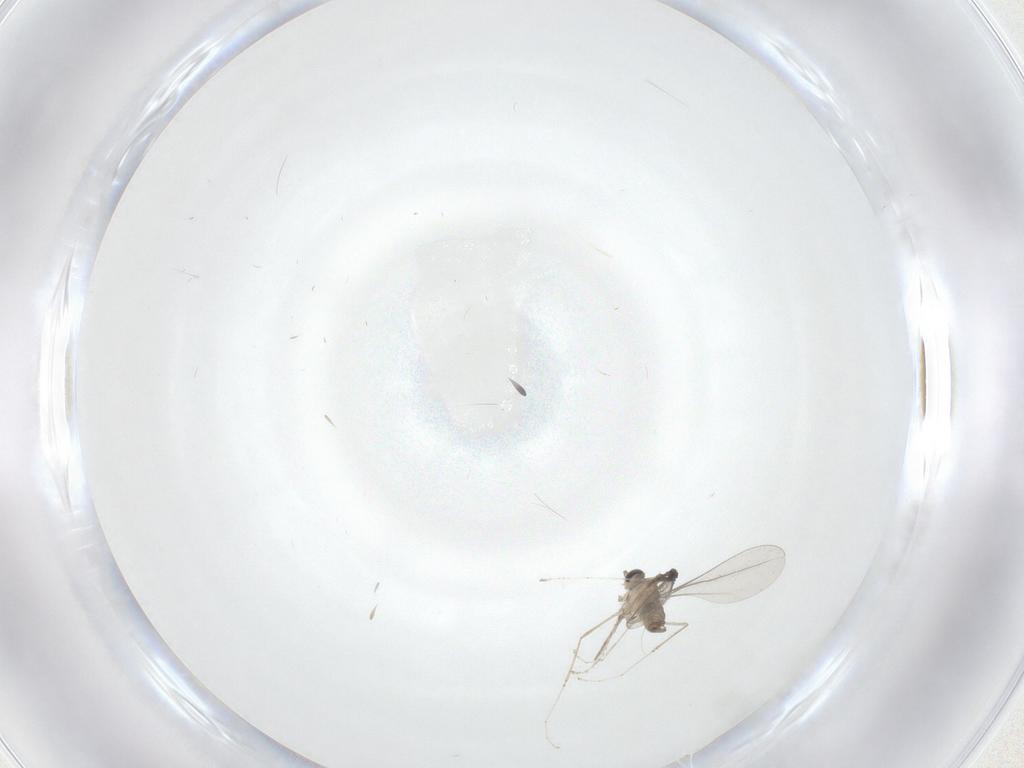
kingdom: Animalia
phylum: Arthropoda
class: Insecta
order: Diptera
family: Cecidomyiidae
